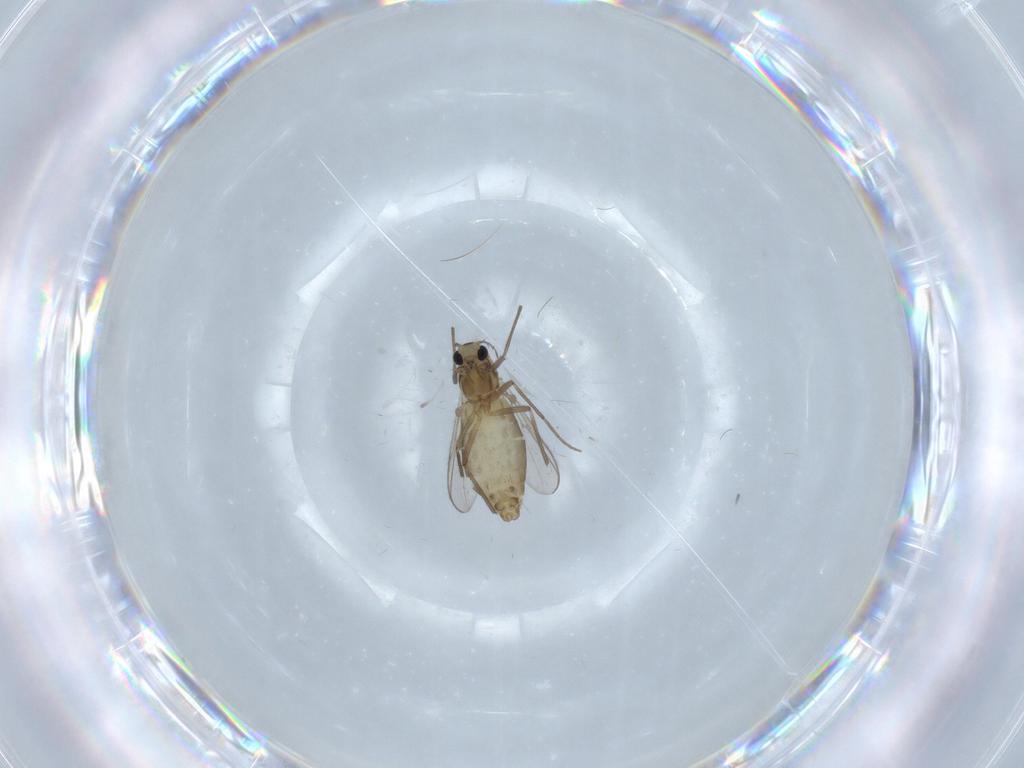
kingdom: Animalia
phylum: Arthropoda
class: Insecta
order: Diptera
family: Chironomidae
